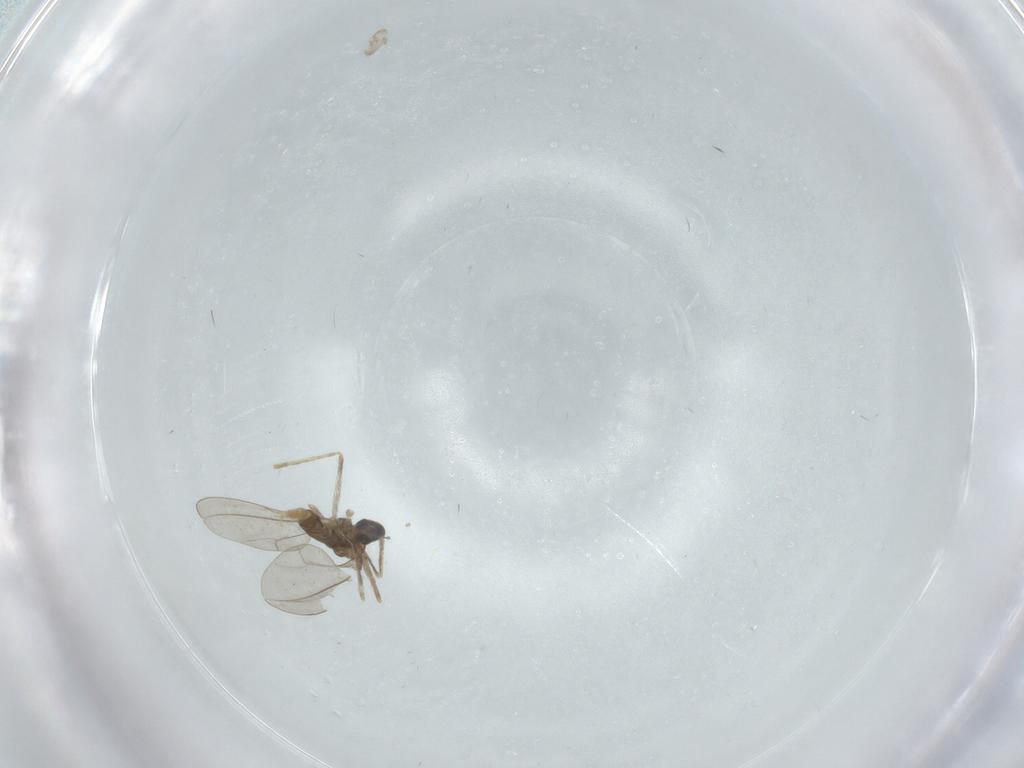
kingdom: Animalia
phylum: Arthropoda
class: Insecta
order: Diptera
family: Cecidomyiidae
